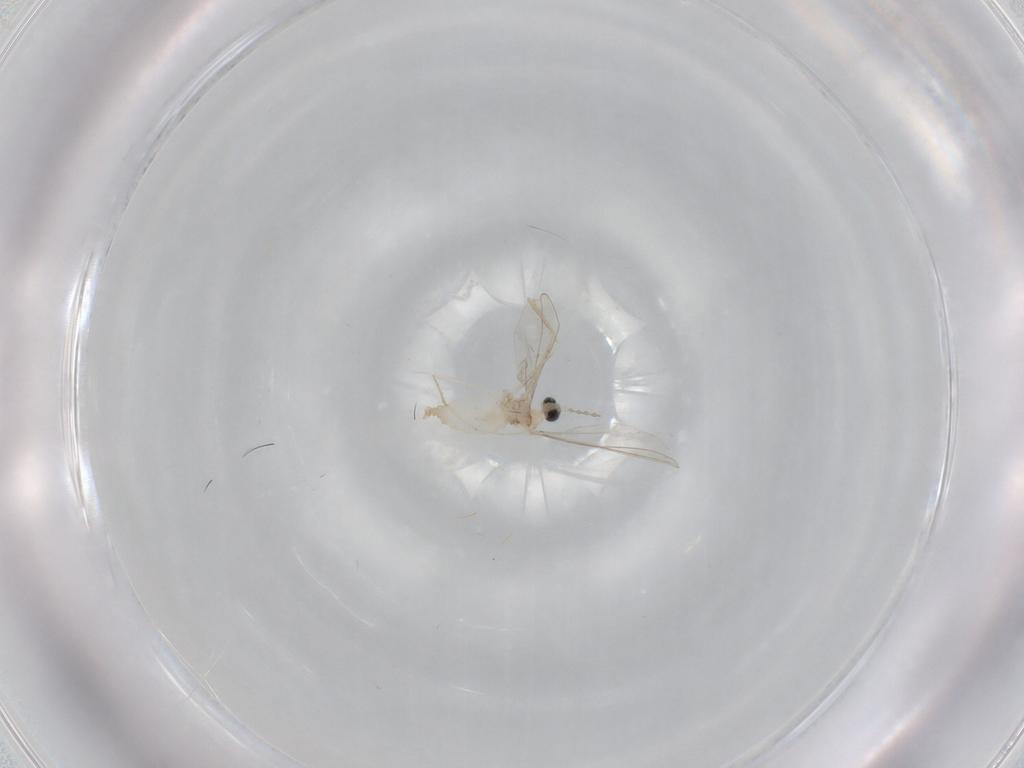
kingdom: Animalia
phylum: Arthropoda
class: Insecta
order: Diptera
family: Cecidomyiidae
